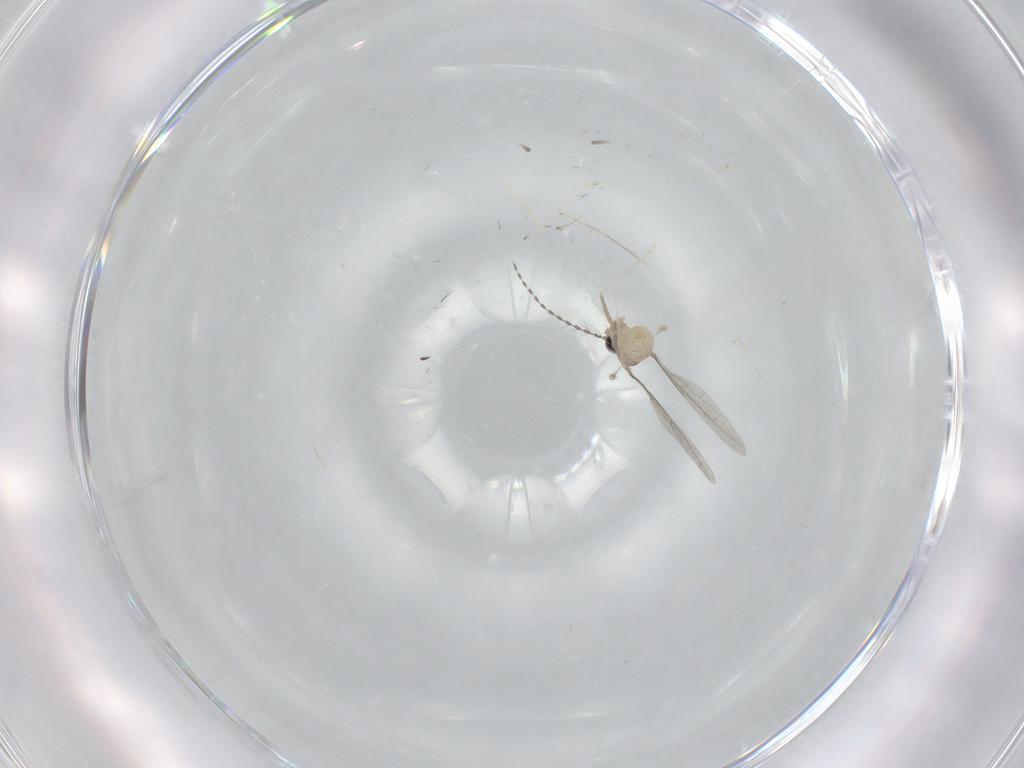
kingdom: Animalia
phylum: Arthropoda
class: Insecta
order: Diptera
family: Cecidomyiidae
